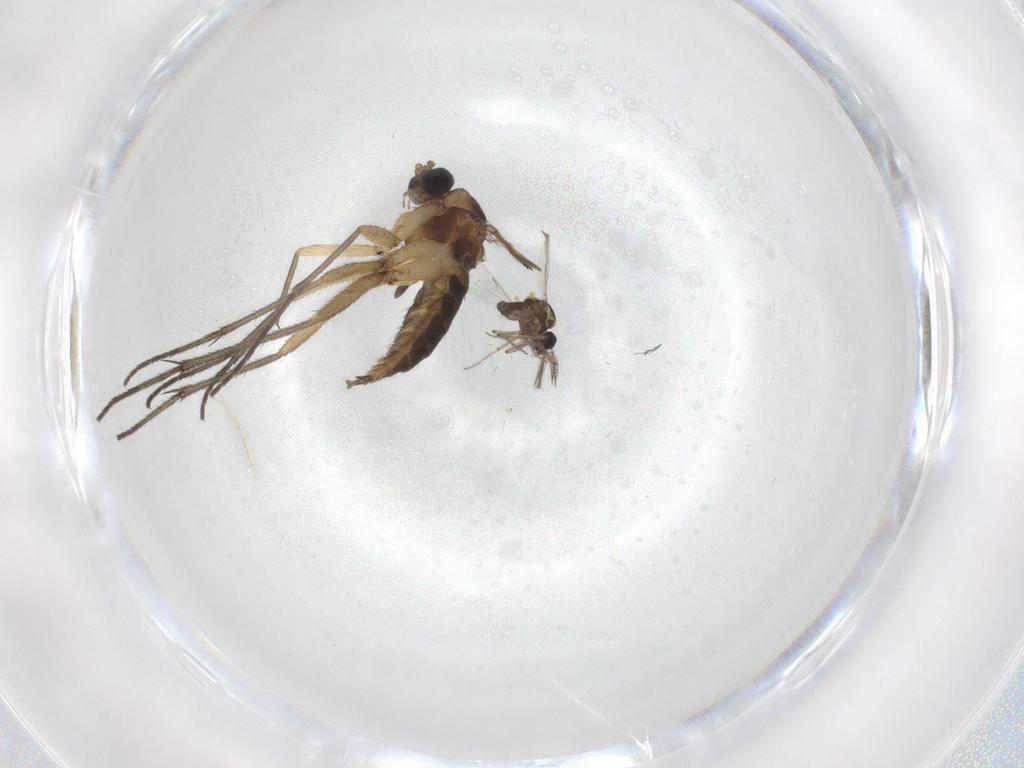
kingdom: Animalia
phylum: Arthropoda
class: Insecta
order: Diptera
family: Sciaridae
